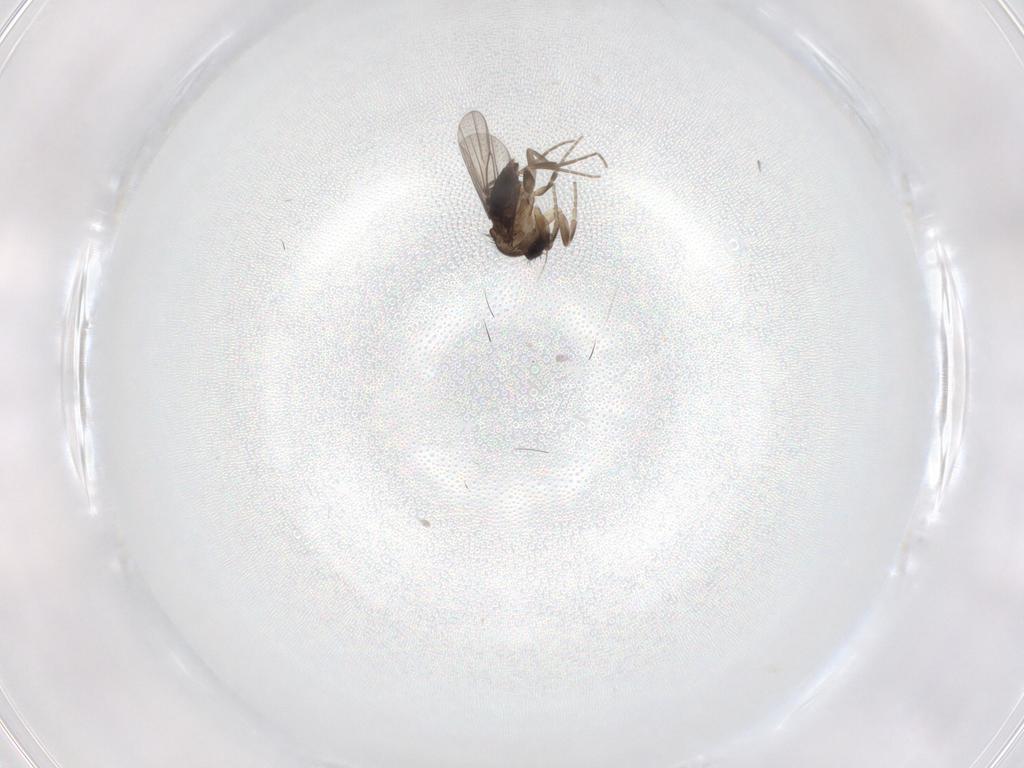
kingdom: Animalia
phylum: Arthropoda
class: Insecta
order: Diptera
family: Phoridae
